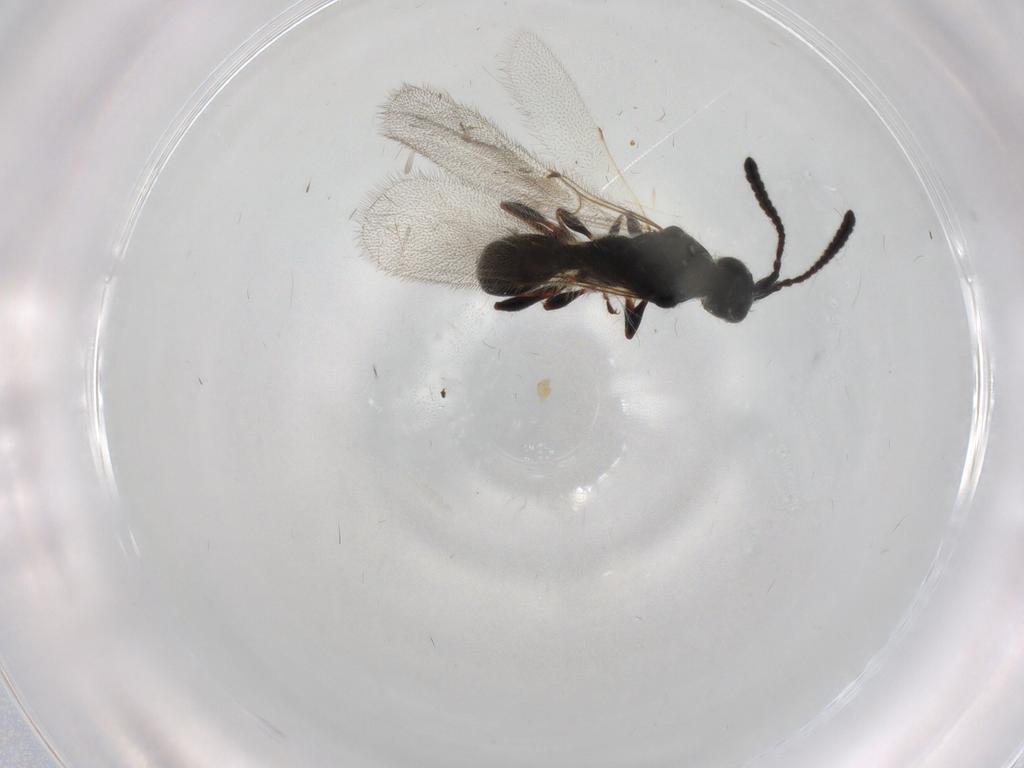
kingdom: Animalia
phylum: Arthropoda
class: Insecta
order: Hymenoptera
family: Diapriidae
